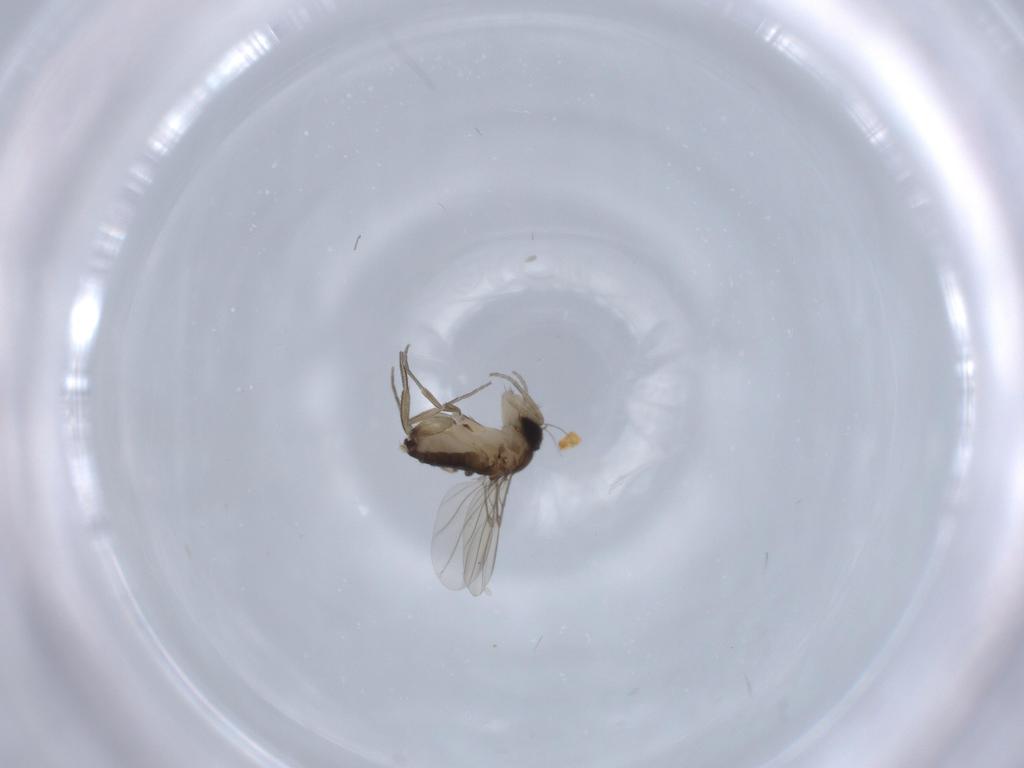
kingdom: Animalia
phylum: Arthropoda
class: Insecta
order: Diptera
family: Phoridae
